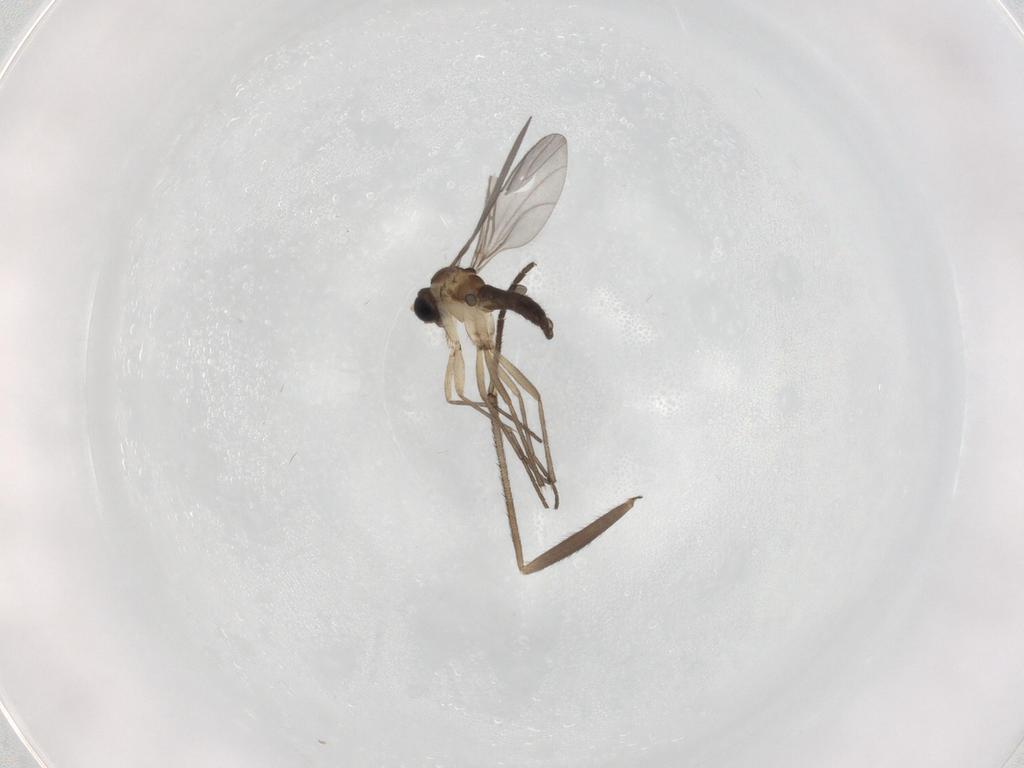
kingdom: Animalia
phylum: Arthropoda
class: Insecta
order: Diptera
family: Sciaridae
